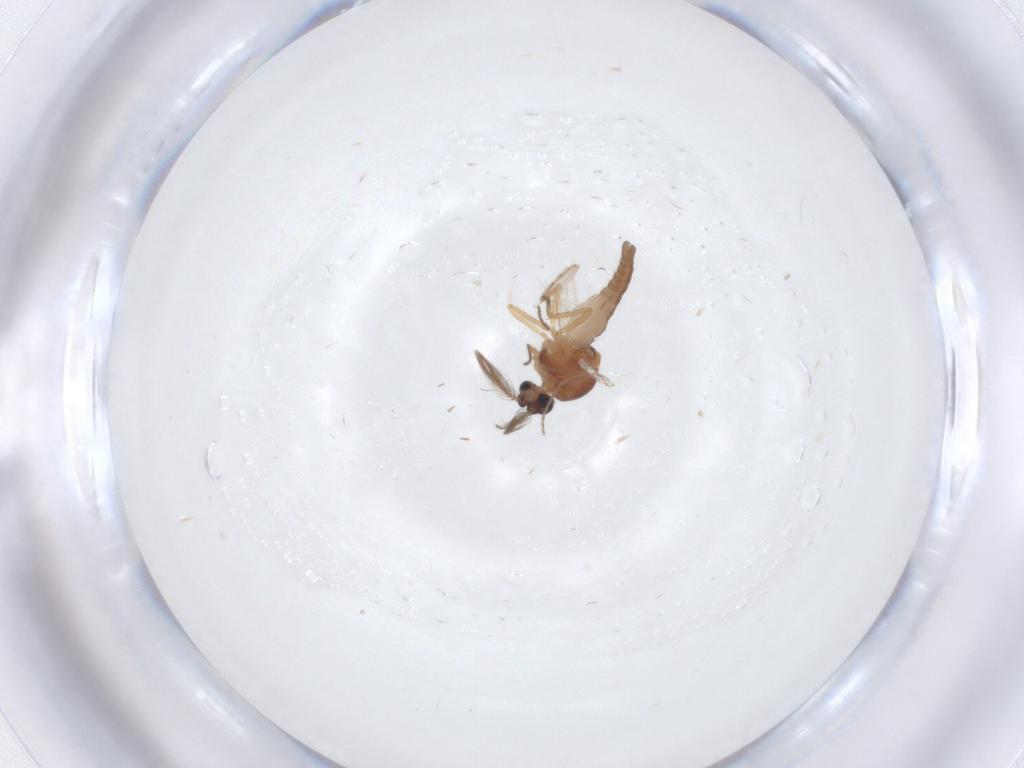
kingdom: Animalia
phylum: Arthropoda
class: Insecta
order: Diptera
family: Ceratopogonidae
